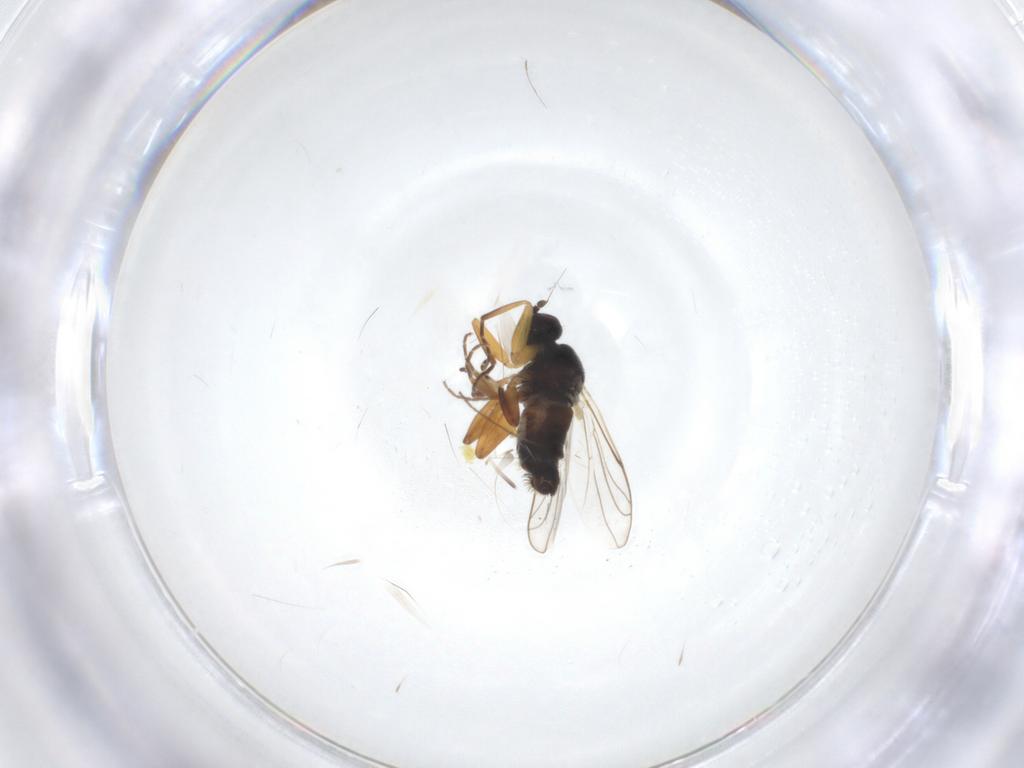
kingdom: Animalia
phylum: Arthropoda
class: Insecta
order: Diptera
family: Hybotidae
